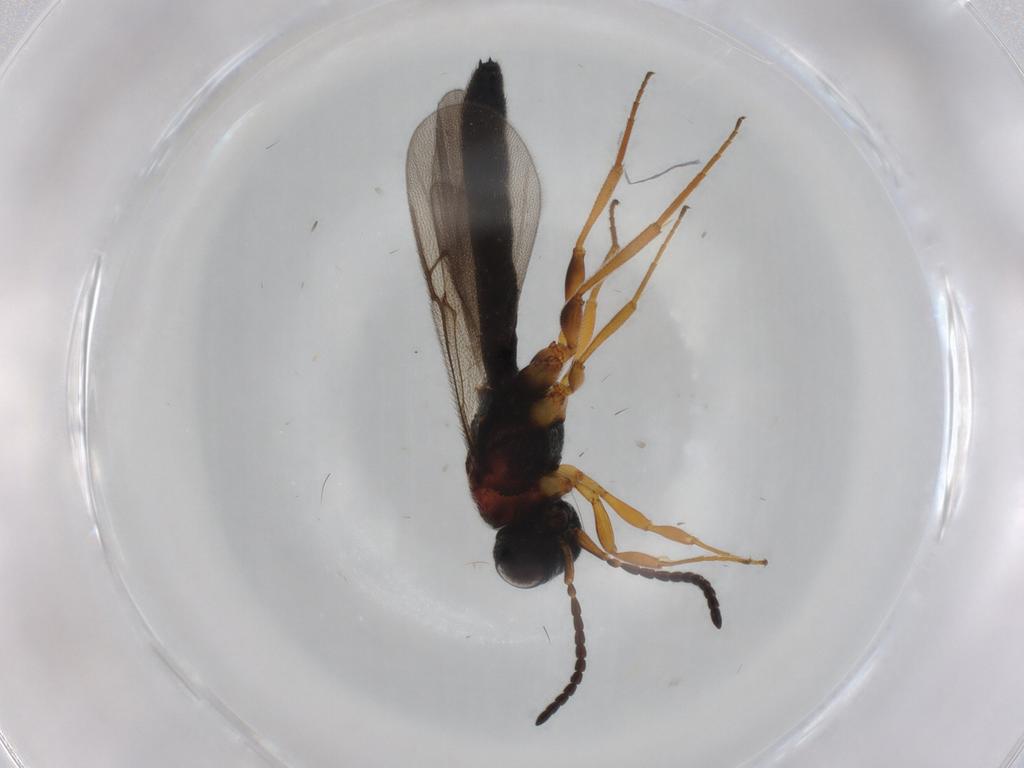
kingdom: Animalia
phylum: Arthropoda
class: Insecta
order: Hymenoptera
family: Scelionidae
